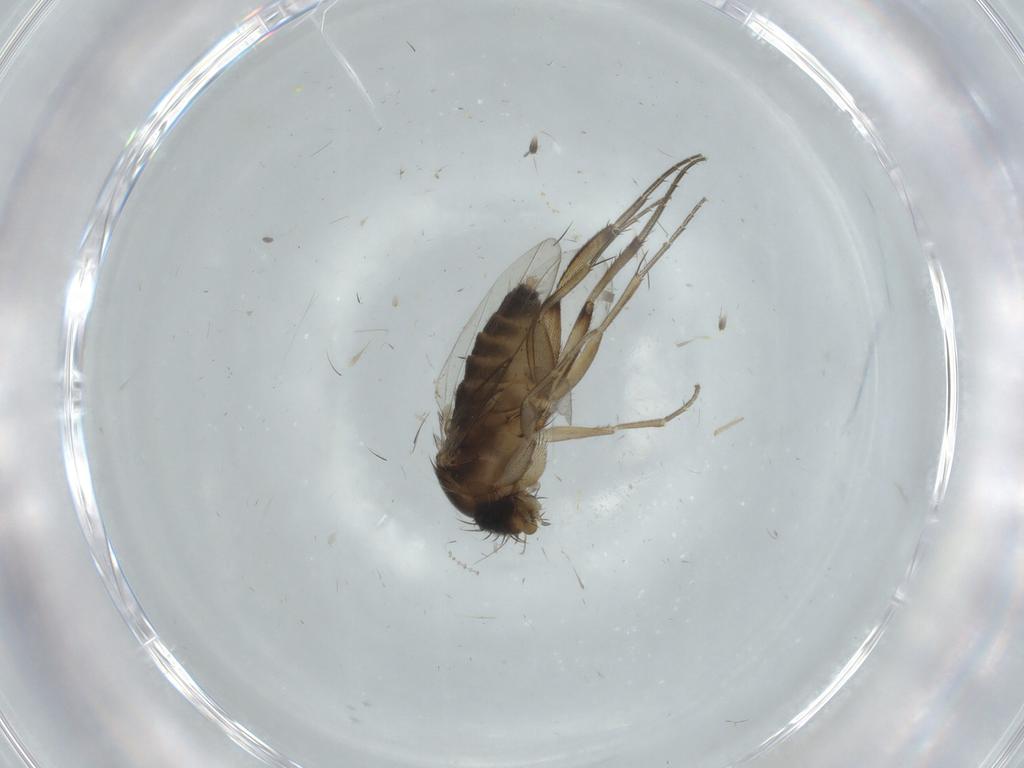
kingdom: Animalia
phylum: Arthropoda
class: Insecta
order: Diptera
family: Phoridae
